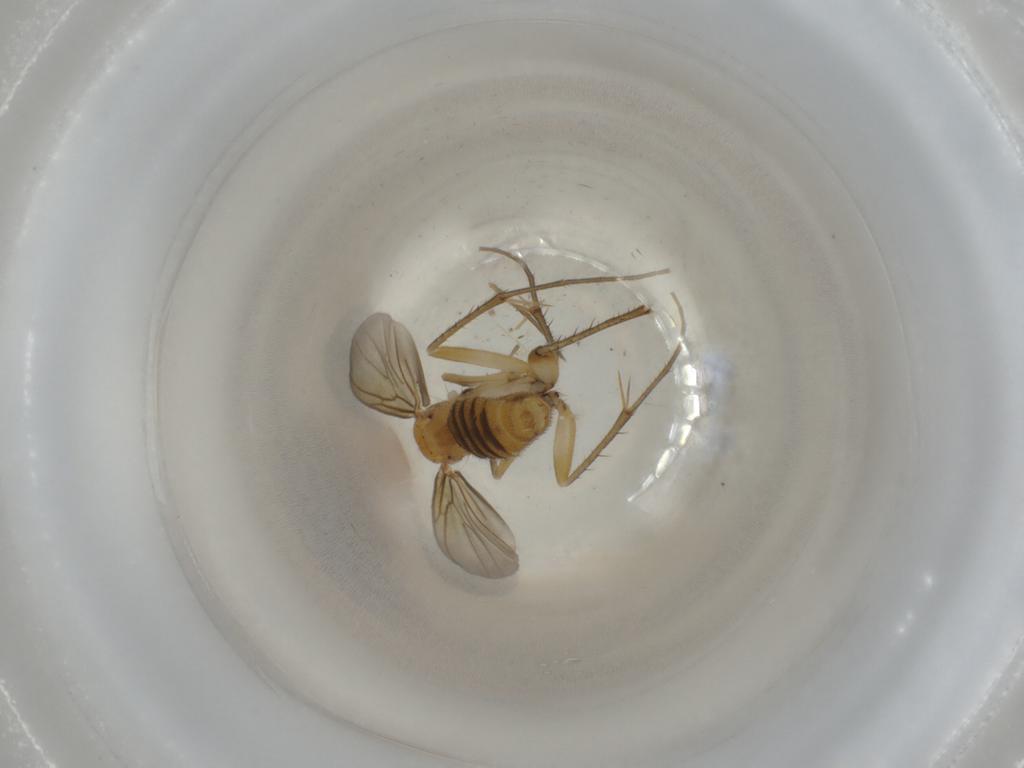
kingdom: Animalia
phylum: Arthropoda
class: Insecta
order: Diptera
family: Mycetophilidae
